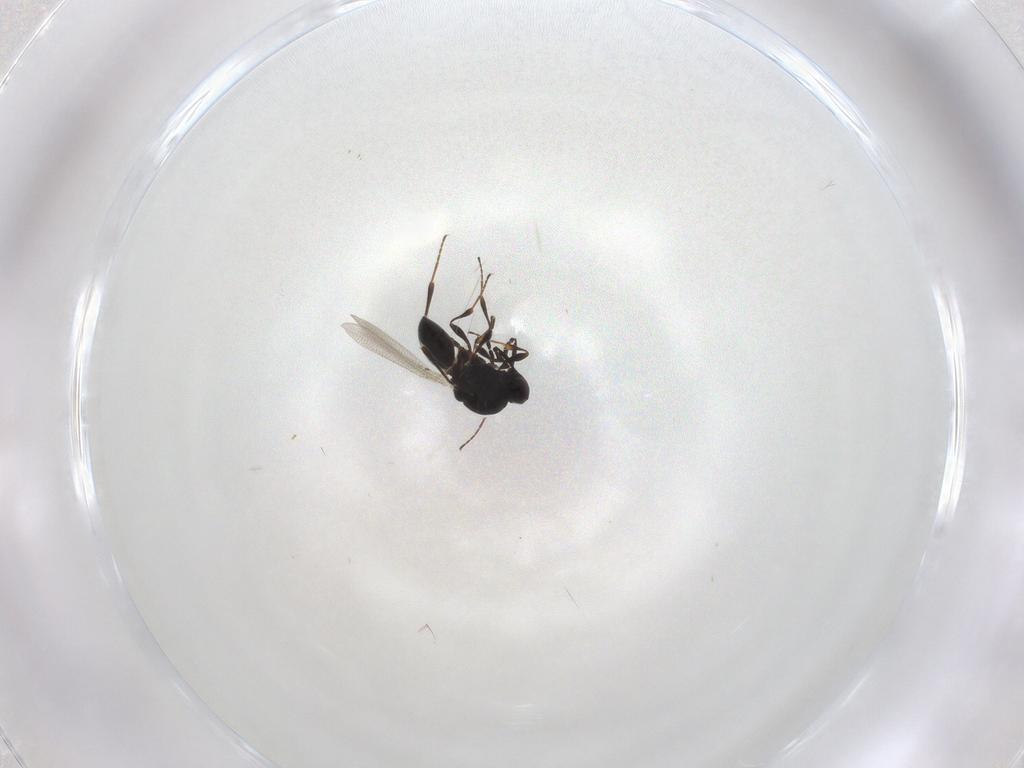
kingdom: Animalia
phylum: Arthropoda
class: Insecta
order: Hymenoptera
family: Platygastridae
